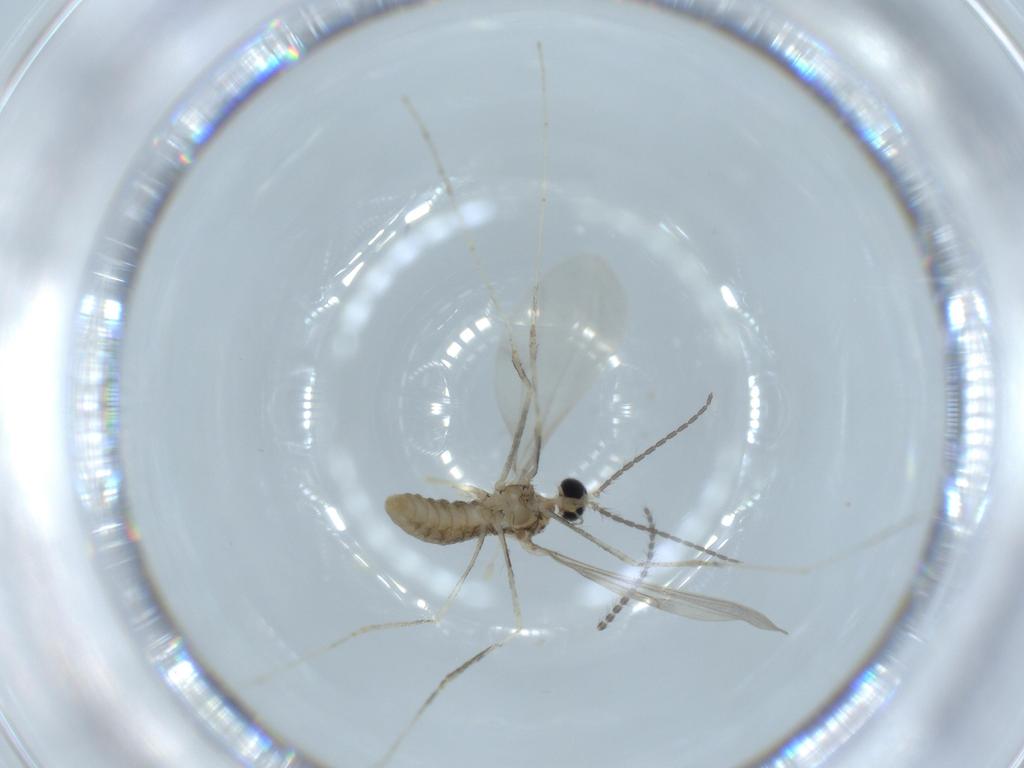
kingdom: Animalia
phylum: Arthropoda
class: Insecta
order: Diptera
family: Cecidomyiidae
